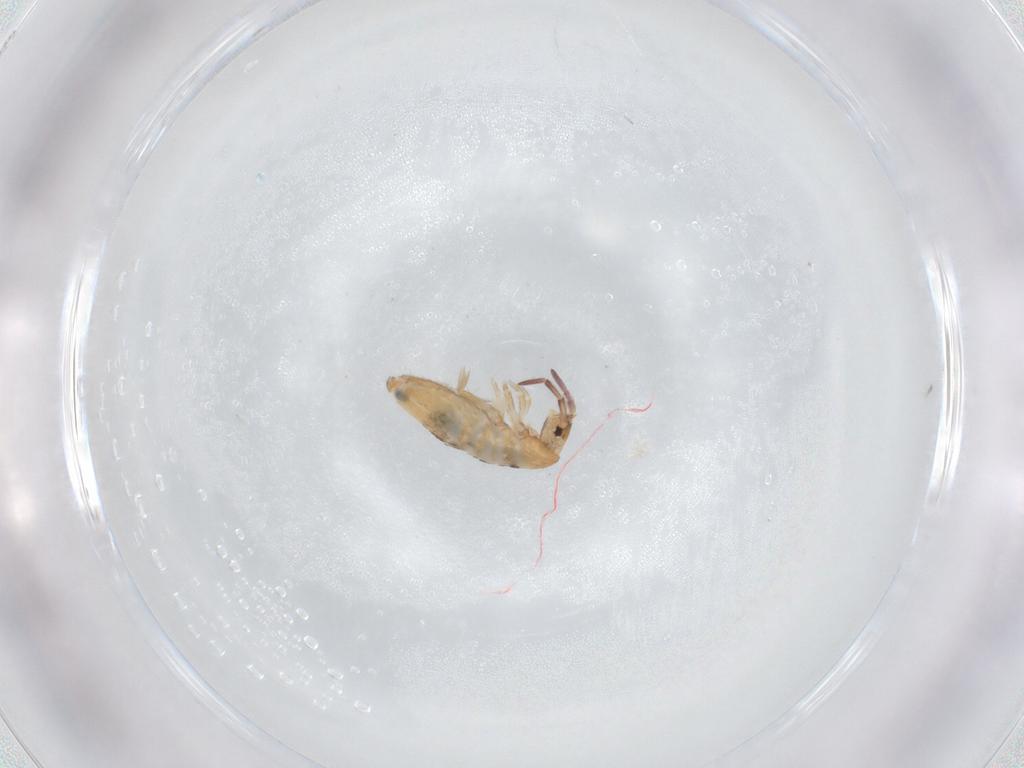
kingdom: Animalia
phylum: Arthropoda
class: Collembola
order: Entomobryomorpha
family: Entomobryidae
